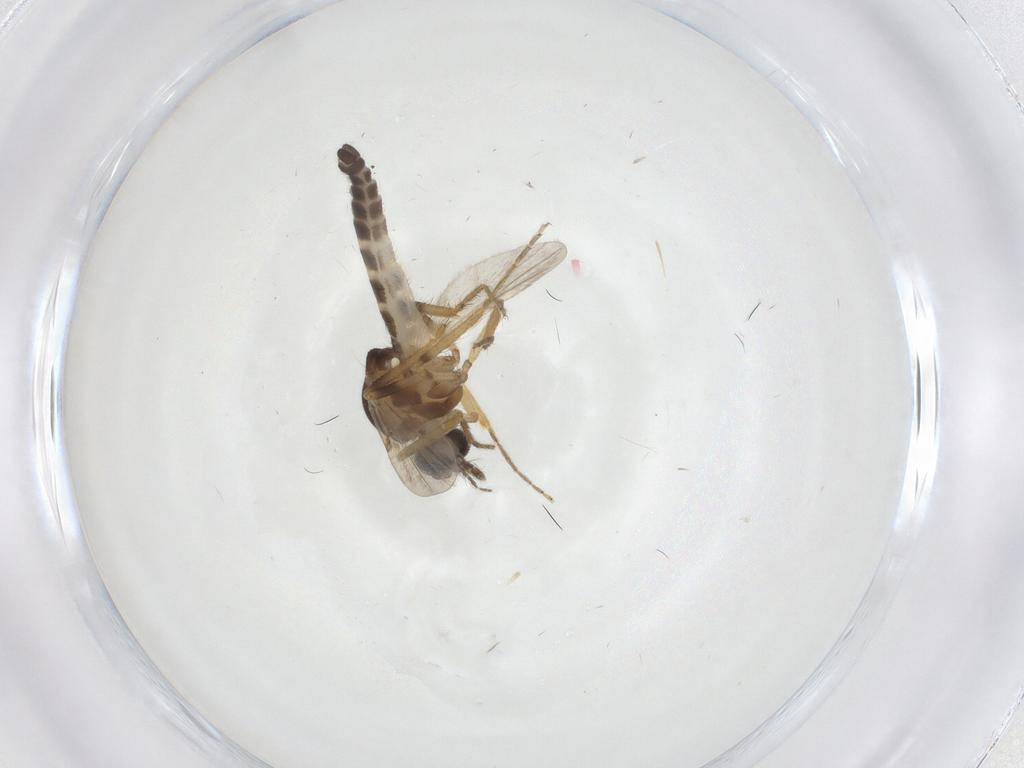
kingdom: Animalia
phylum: Arthropoda
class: Insecta
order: Diptera
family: Ceratopogonidae
